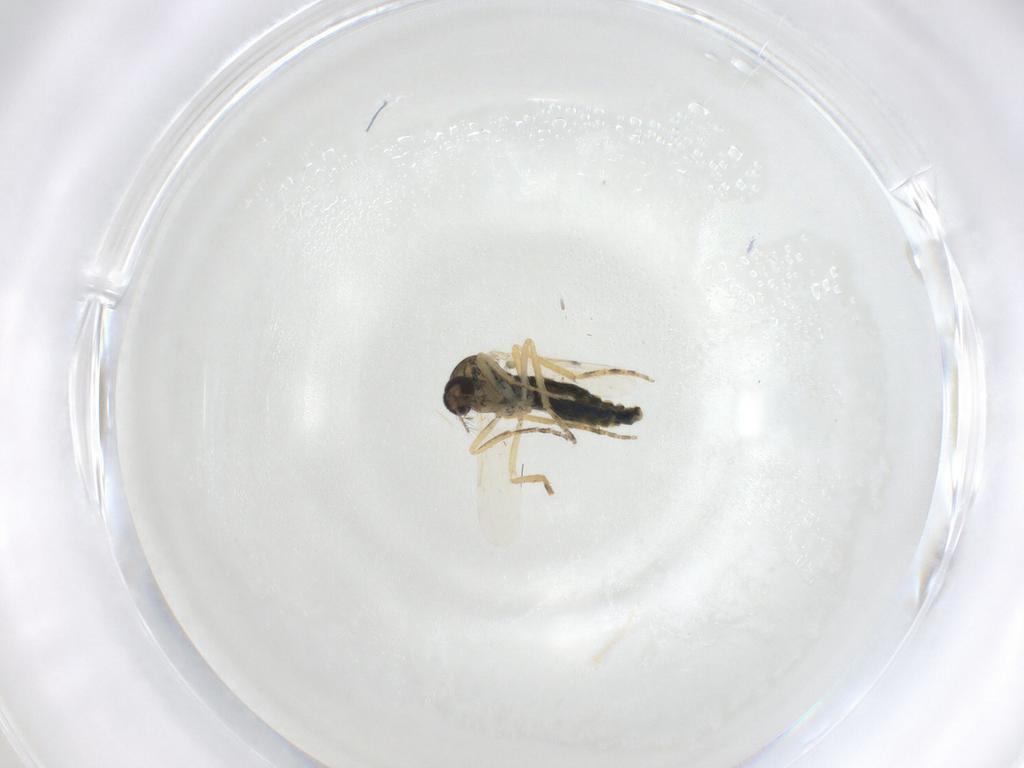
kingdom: Animalia
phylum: Arthropoda
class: Insecta
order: Diptera
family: Ceratopogonidae
